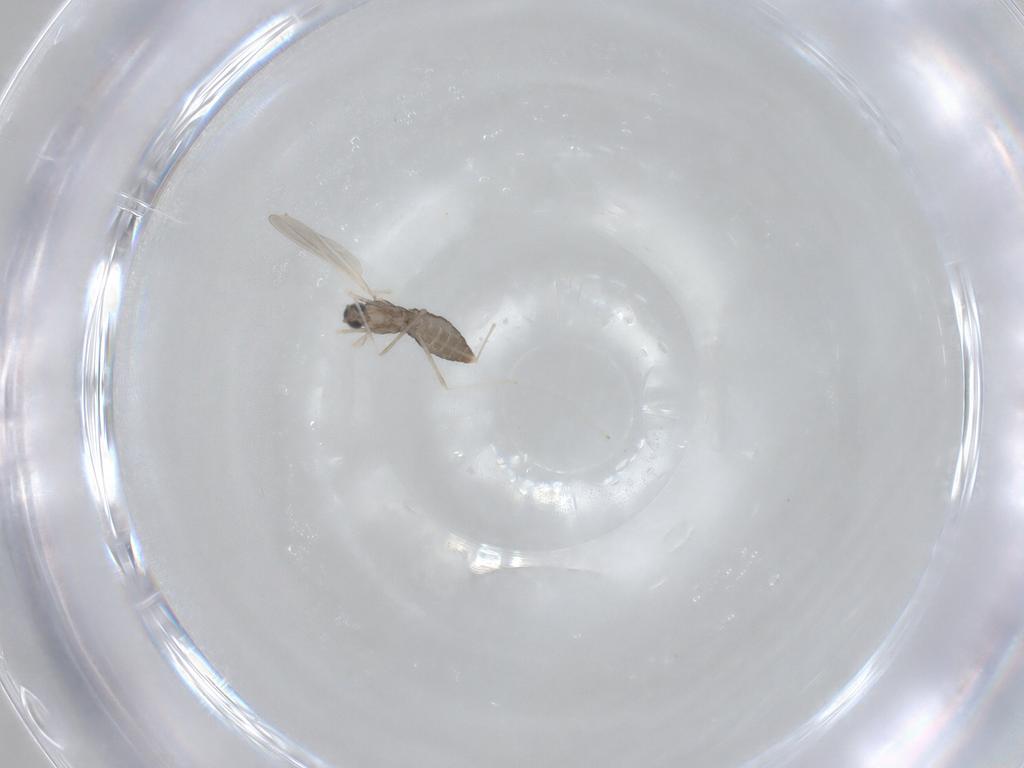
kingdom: Animalia
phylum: Arthropoda
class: Insecta
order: Diptera
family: Cecidomyiidae
